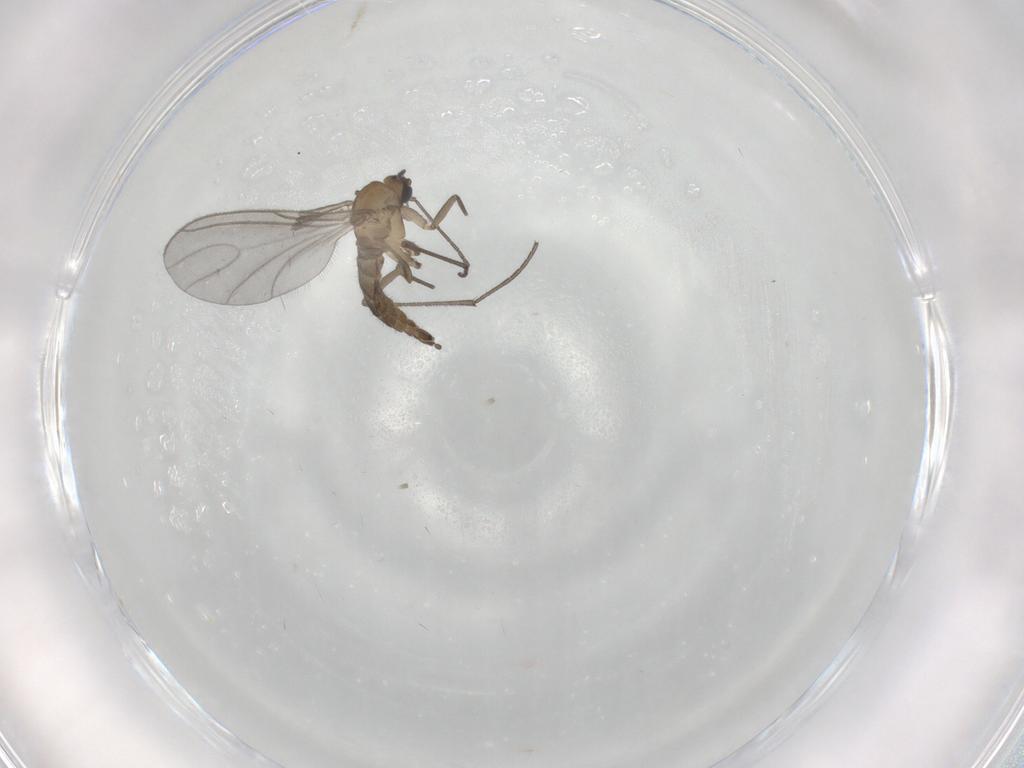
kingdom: Animalia
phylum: Arthropoda
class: Insecta
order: Diptera
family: Sciaridae
